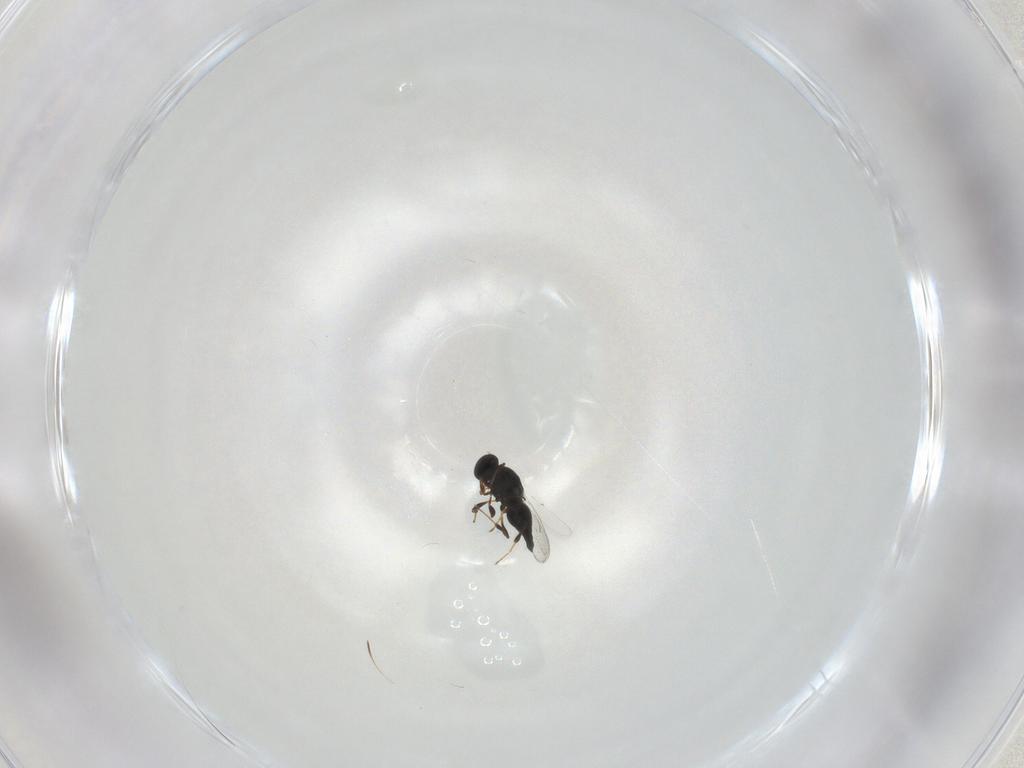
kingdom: Animalia
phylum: Arthropoda
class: Insecta
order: Hymenoptera
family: Platygastridae
